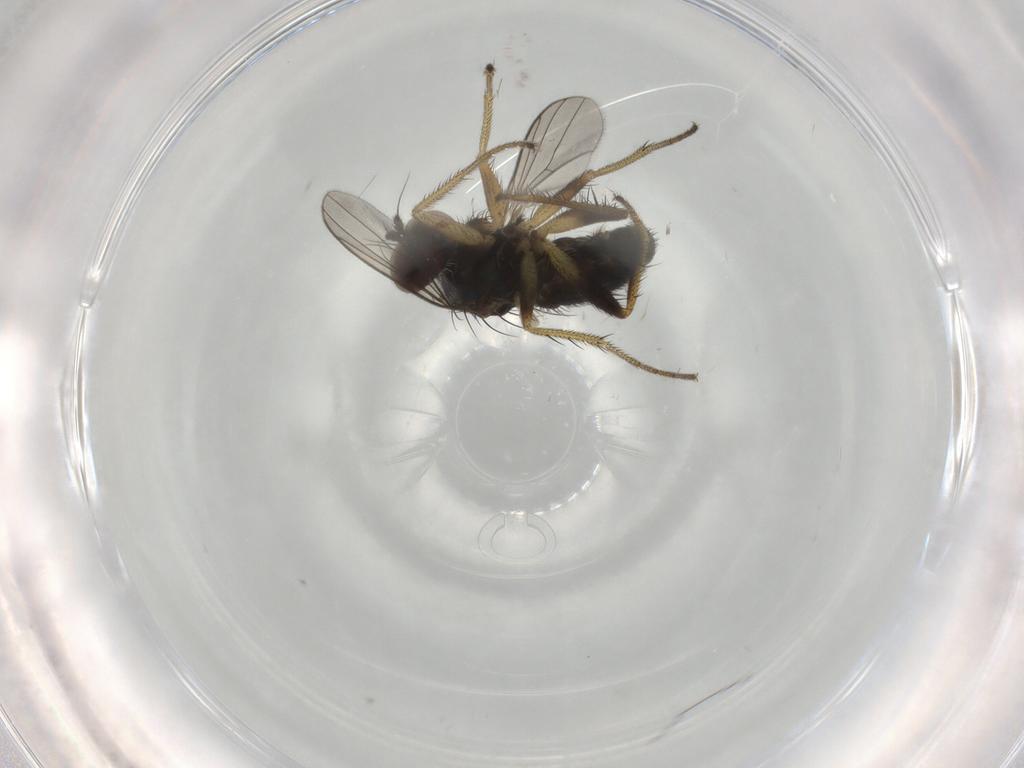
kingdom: Animalia
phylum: Arthropoda
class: Insecta
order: Diptera
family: Dolichopodidae
